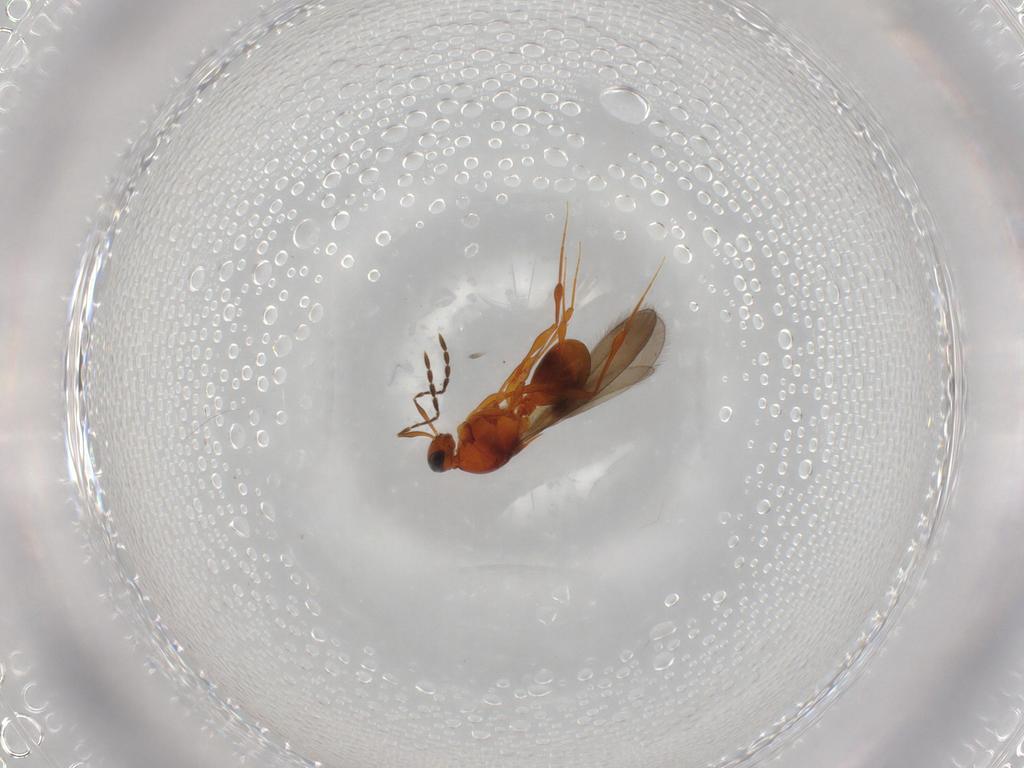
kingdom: Animalia
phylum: Arthropoda
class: Insecta
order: Hymenoptera
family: Platygastridae
